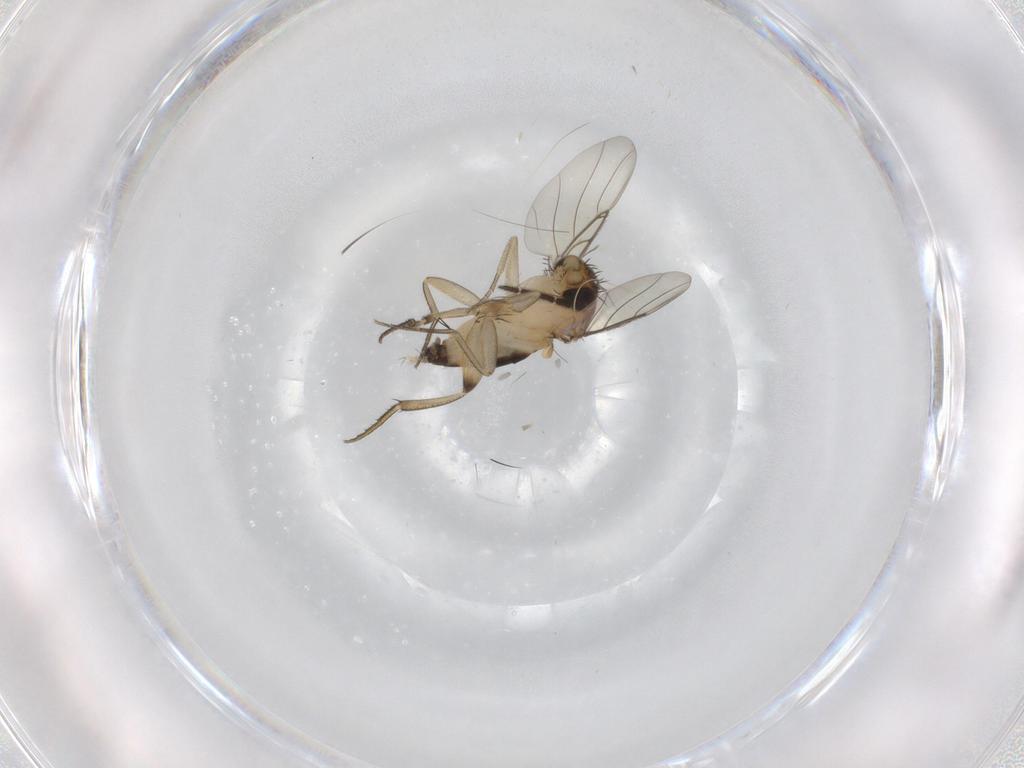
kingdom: Animalia
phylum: Arthropoda
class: Insecta
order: Diptera
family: Phoridae
